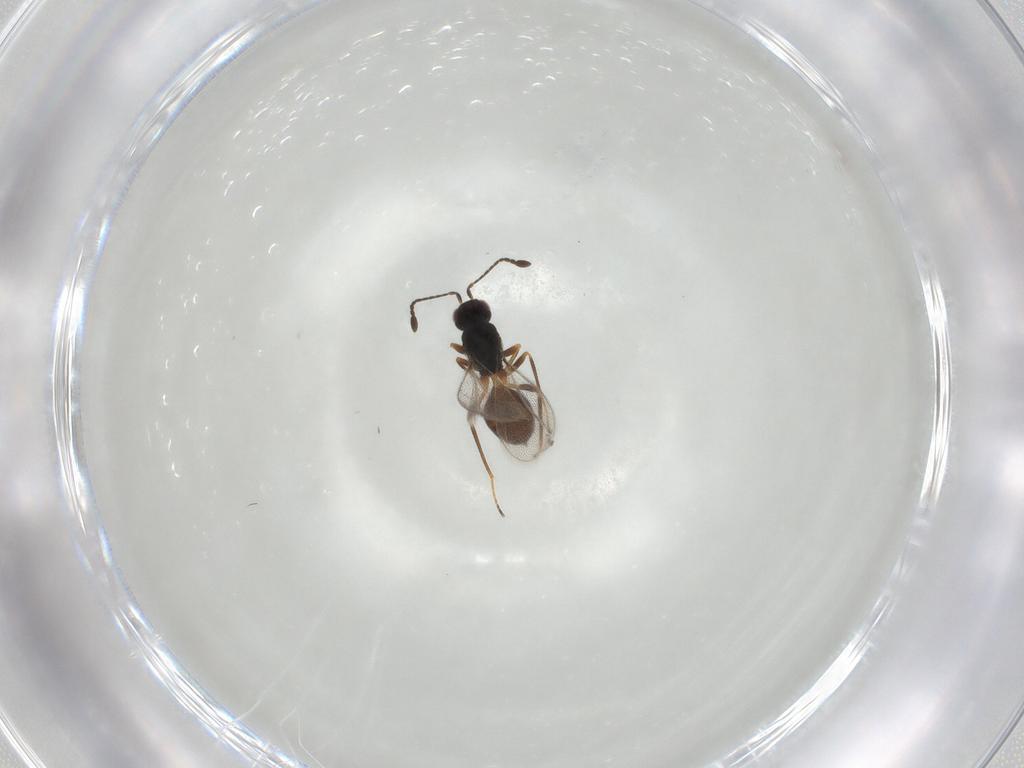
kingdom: Animalia
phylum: Arthropoda
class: Insecta
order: Hymenoptera
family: Mymaridae
